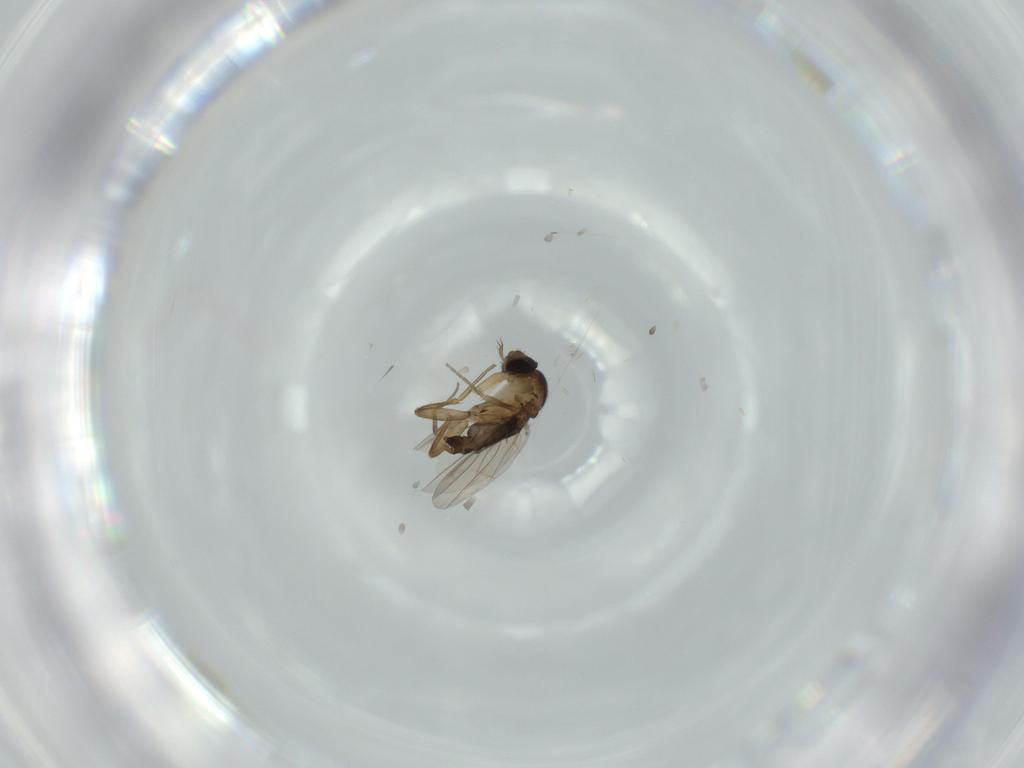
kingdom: Animalia
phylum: Arthropoda
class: Insecta
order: Diptera
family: Phoridae
